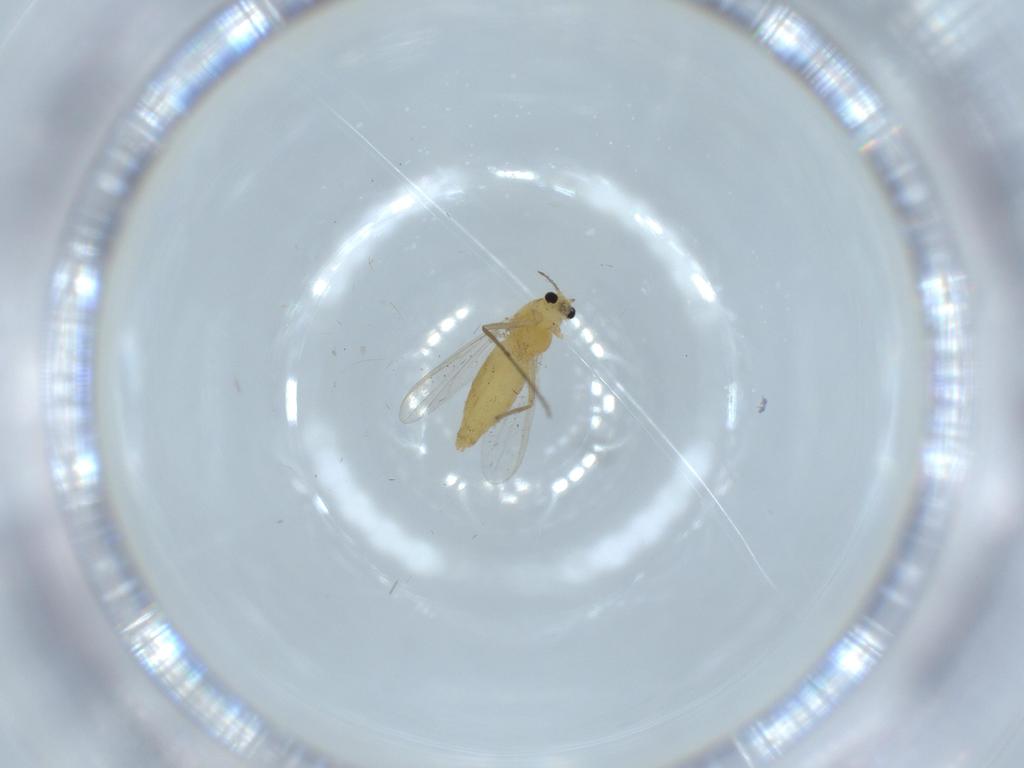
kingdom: Animalia
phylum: Arthropoda
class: Insecta
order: Diptera
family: Chironomidae
